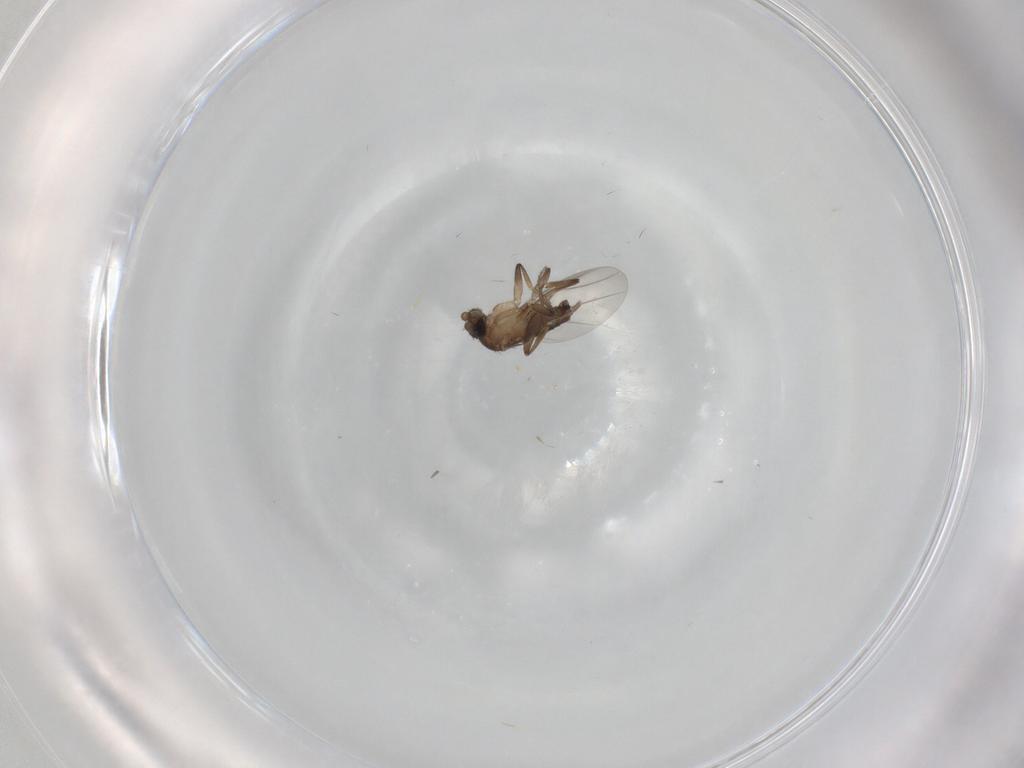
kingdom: Animalia
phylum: Arthropoda
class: Insecta
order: Diptera
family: Phoridae
